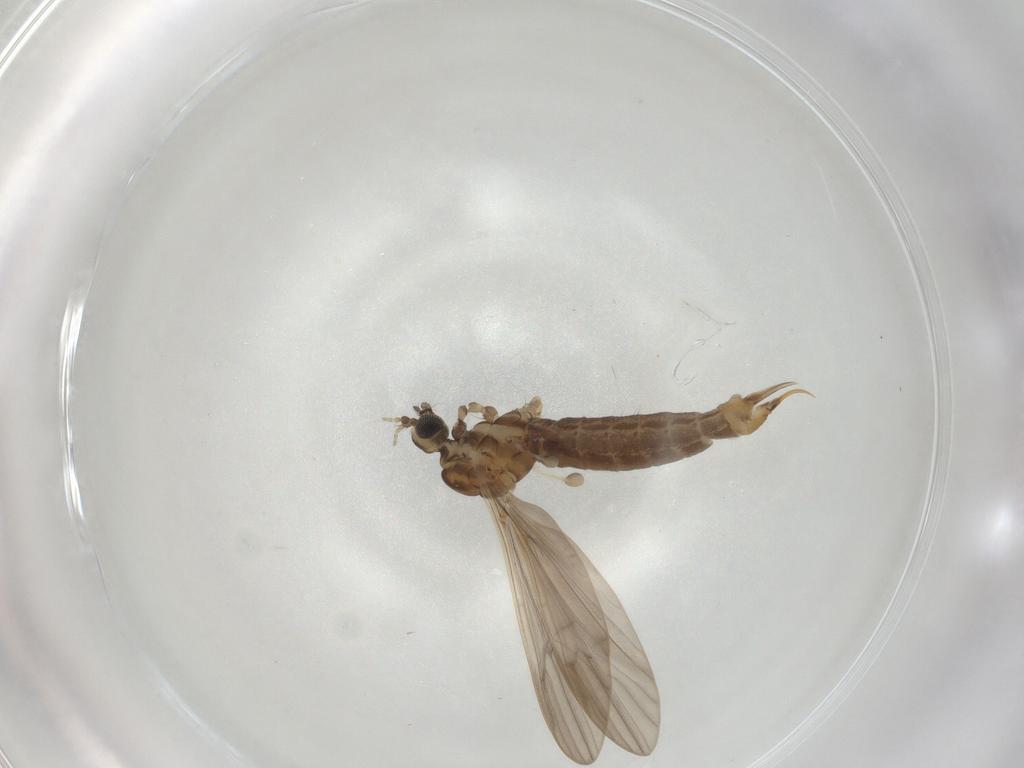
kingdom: Animalia
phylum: Arthropoda
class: Insecta
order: Diptera
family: Limoniidae
